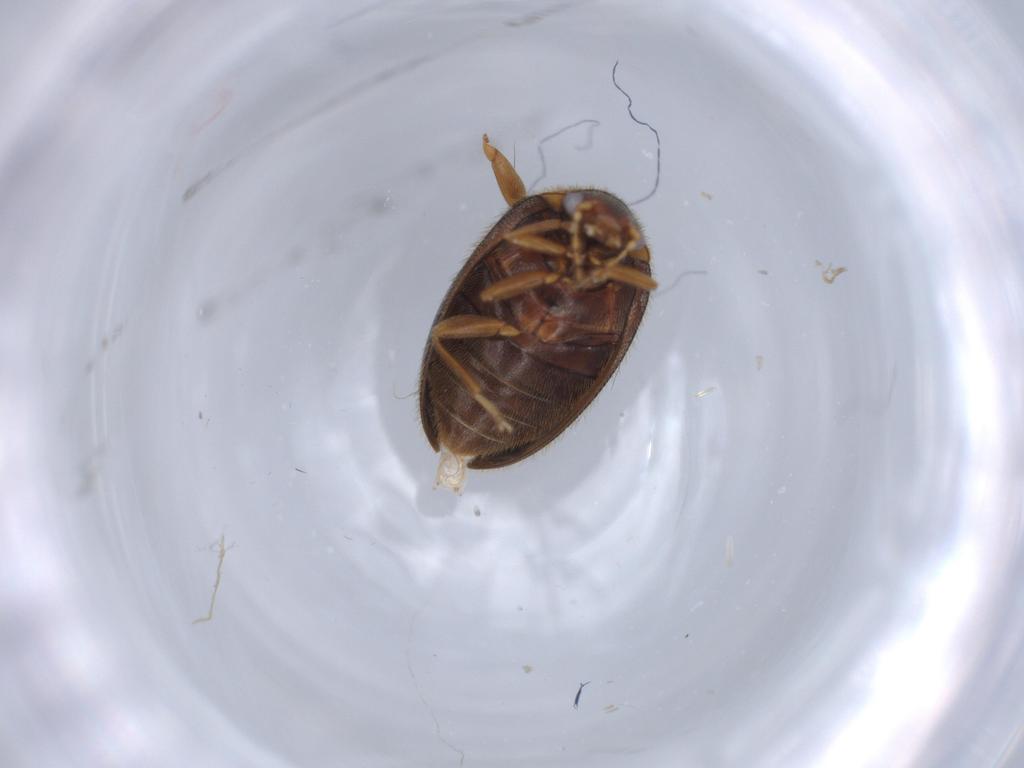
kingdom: Animalia
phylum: Arthropoda
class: Insecta
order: Coleoptera
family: Scirtidae
